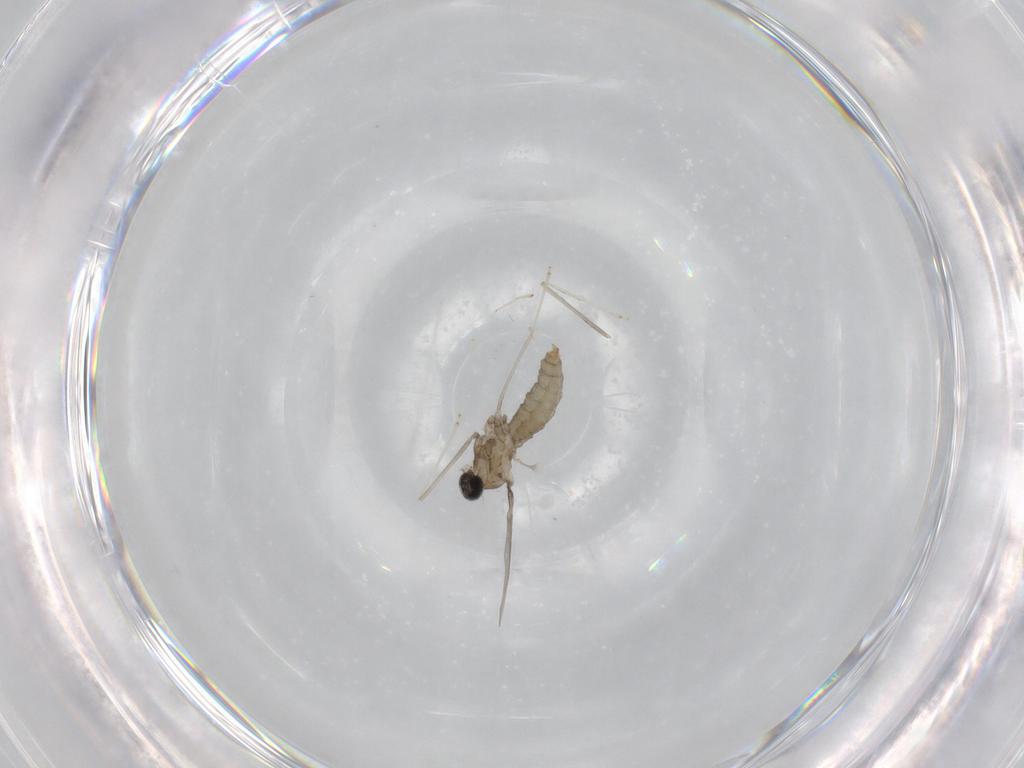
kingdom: Animalia
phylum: Arthropoda
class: Insecta
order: Diptera
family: Cecidomyiidae
